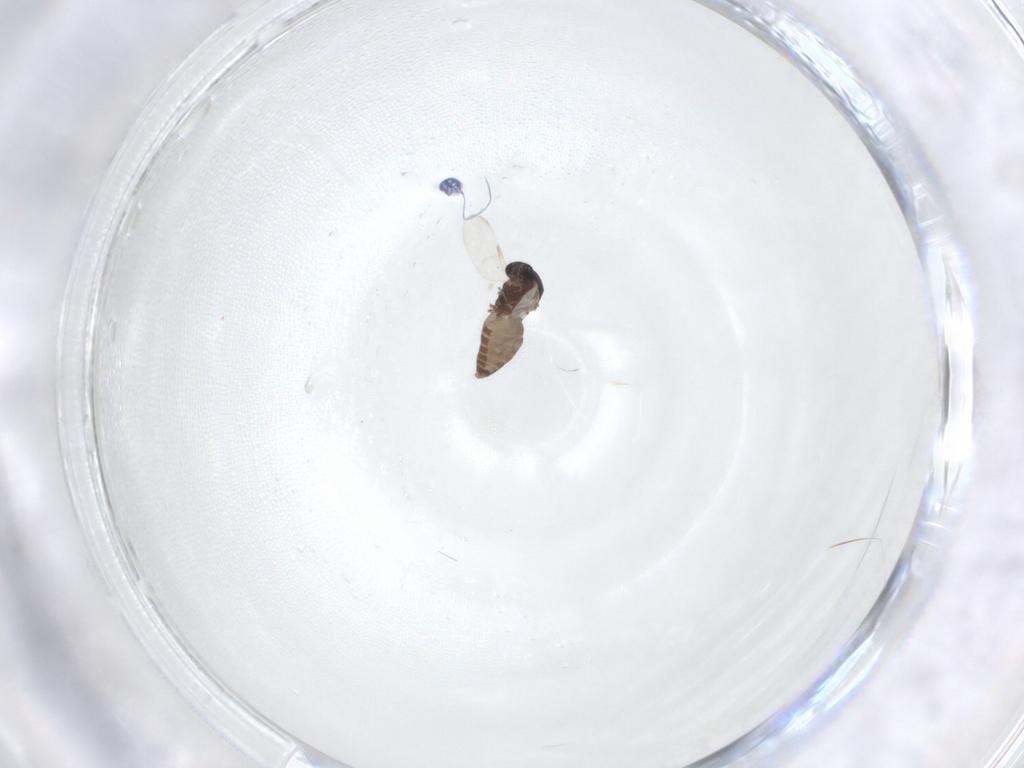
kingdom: Animalia
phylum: Arthropoda
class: Insecta
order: Diptera
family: Ceratopogonidae
